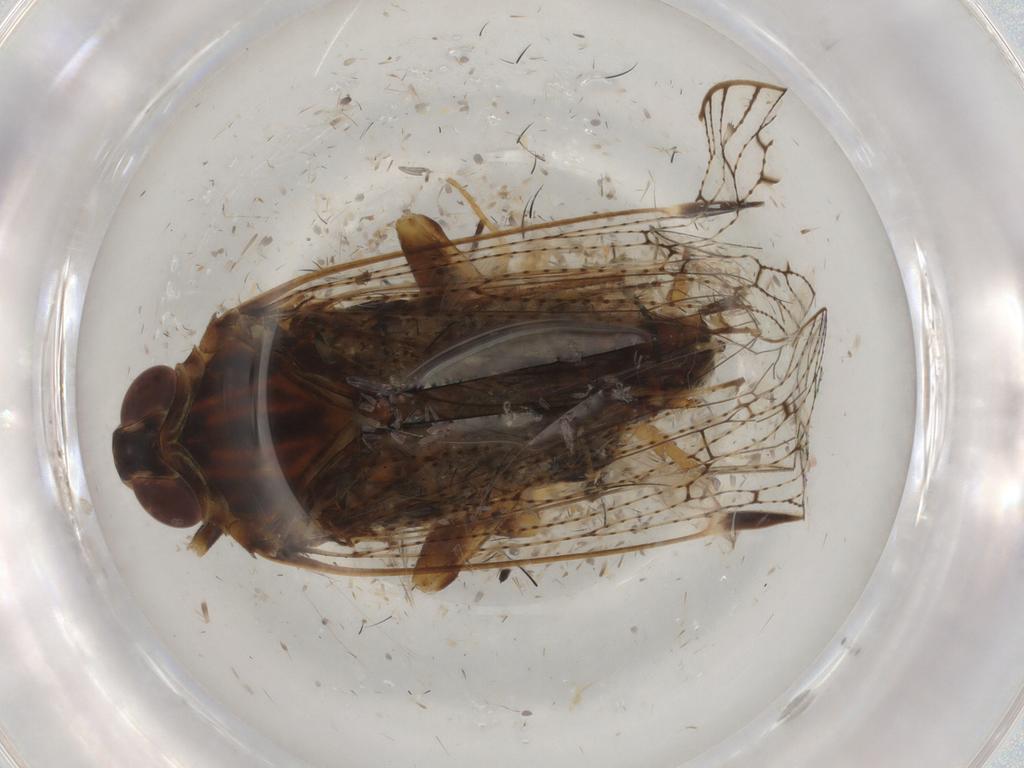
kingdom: Animalia
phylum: Arthropoda
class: Insecta
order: Hemiptera
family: Cixiidae
